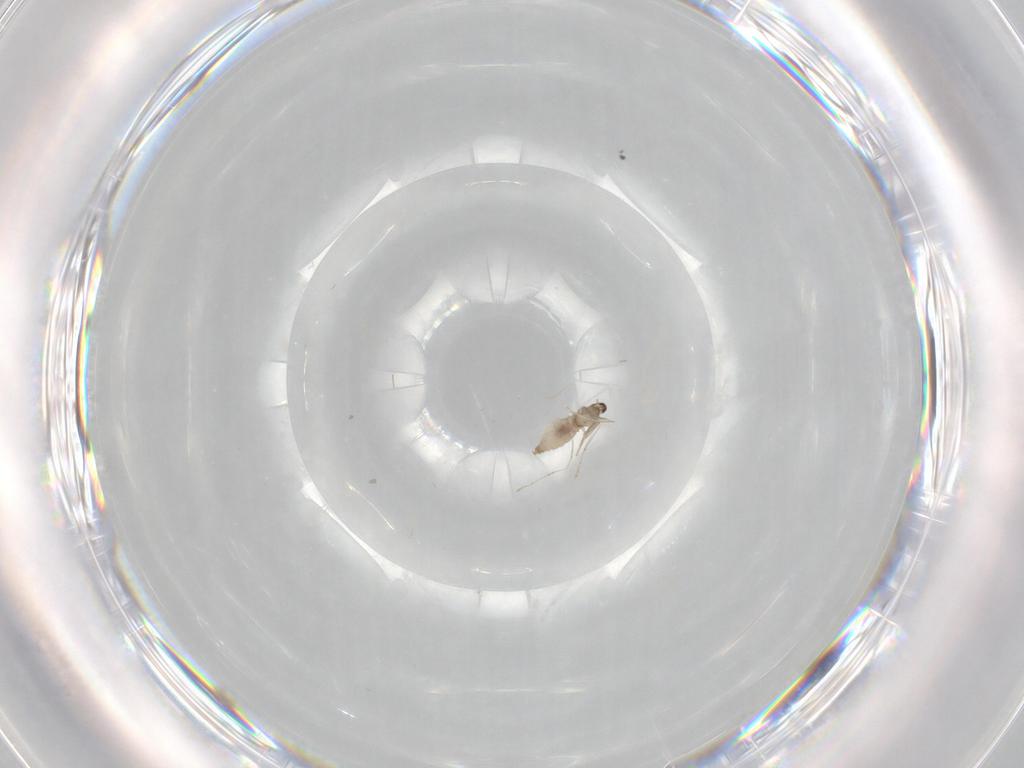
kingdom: Animalia
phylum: Arthropoda
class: Insecta
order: Diptera
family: Cecidomyiidae
